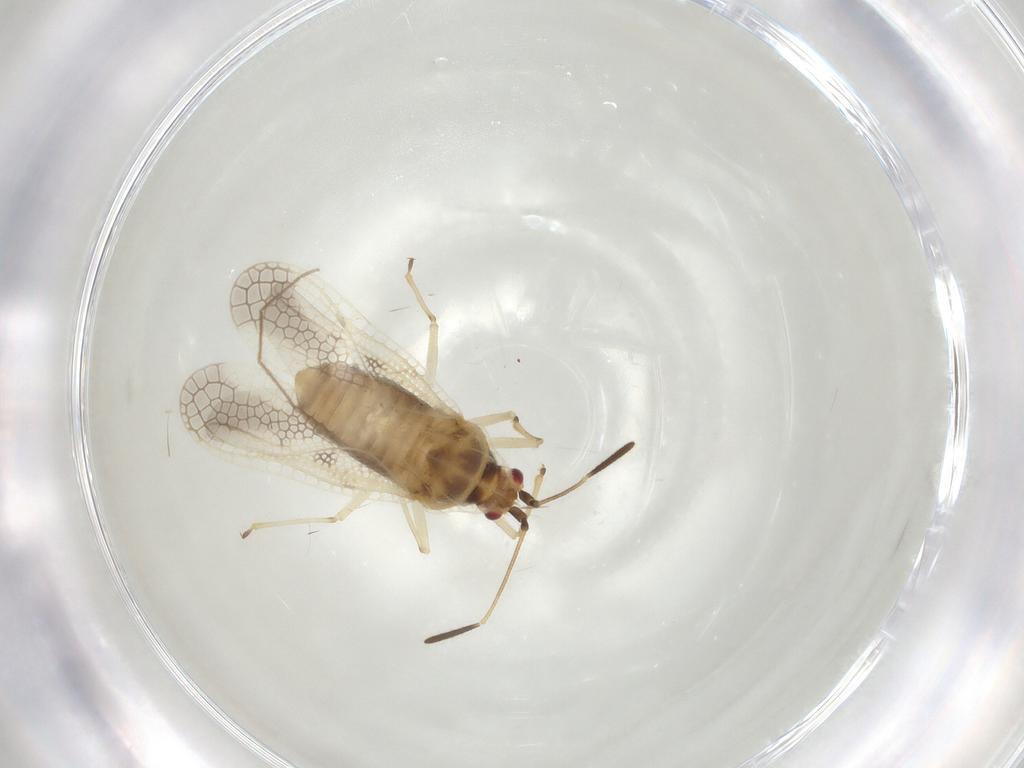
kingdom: Animalia
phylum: Arthropoda
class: Insecta
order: Hemiptera
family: Tingidae
